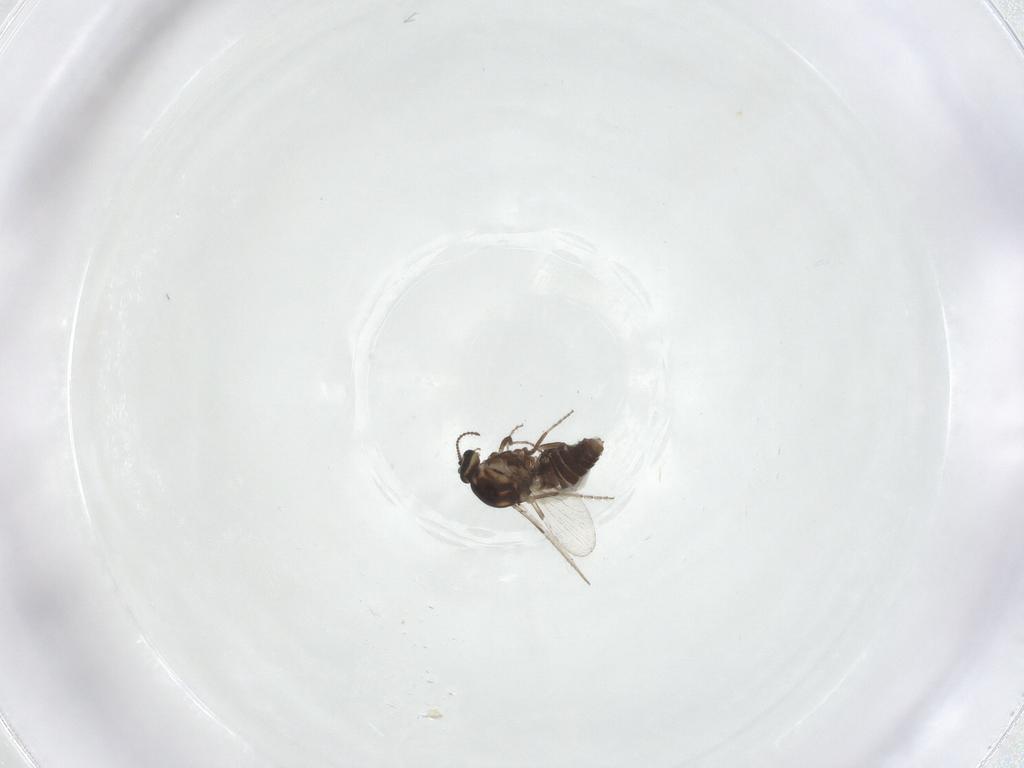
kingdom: Animalia
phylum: Arthropoda
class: Insecta
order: Diptera
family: Ceratopogonidae
